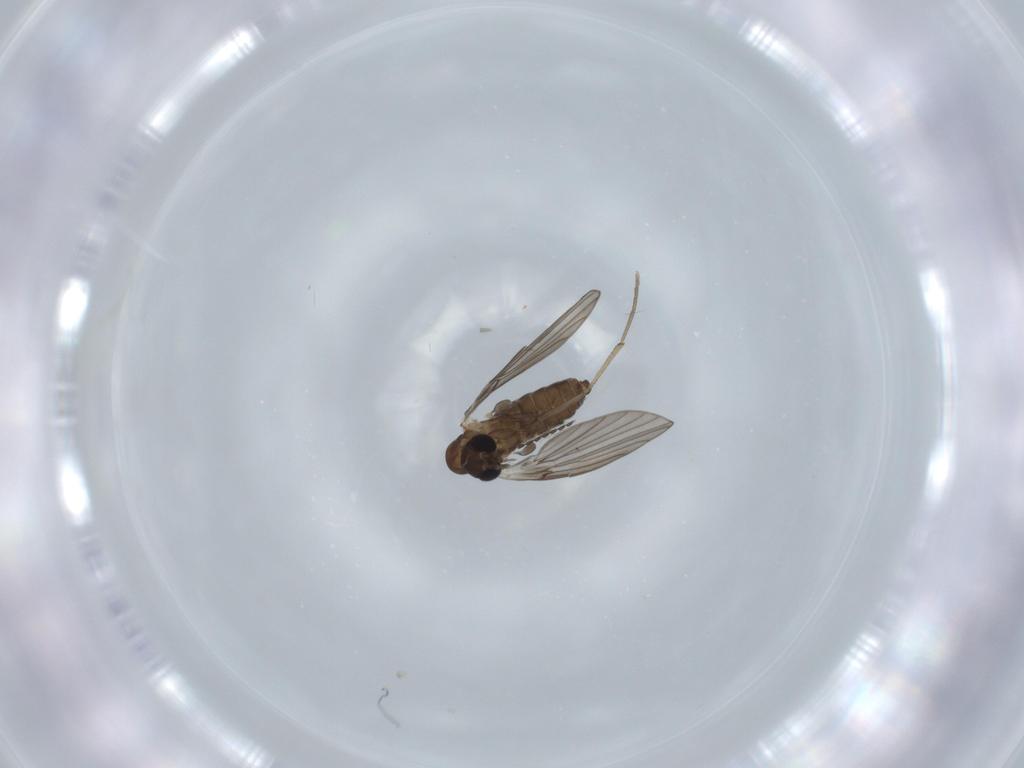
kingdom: Animalia
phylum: Arthropoda
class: Insecta
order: Diptera
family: Psychodidae
